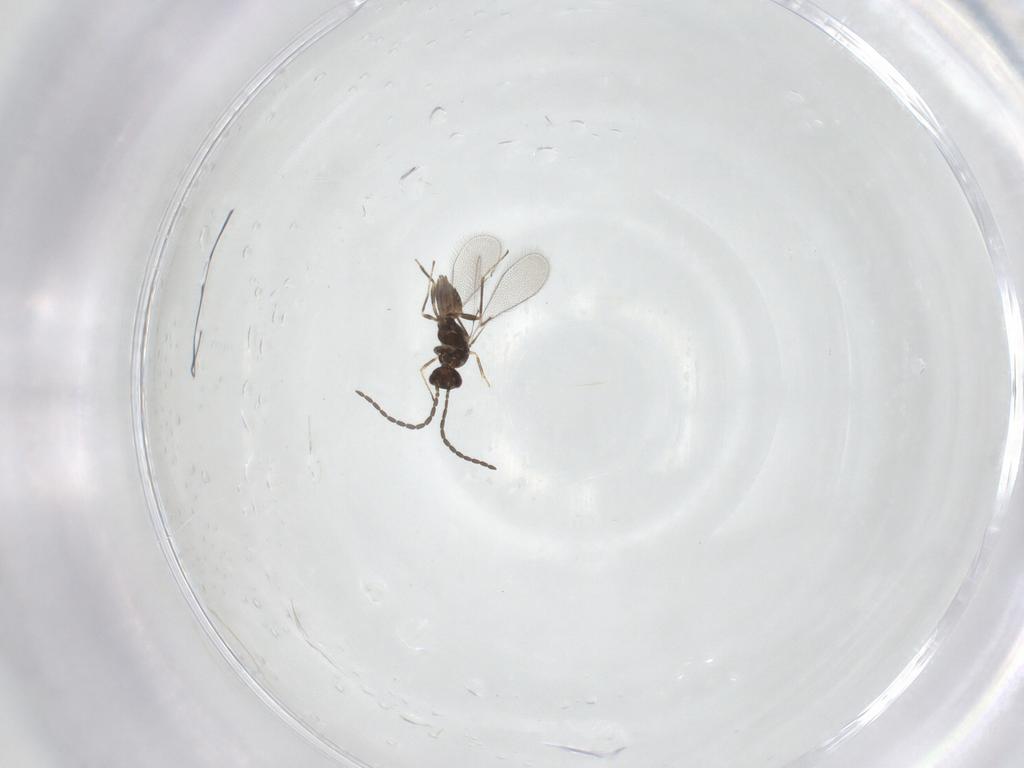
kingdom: Animalia
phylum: Arthropoda
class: Insecta
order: Hymenoptera
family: Mymaridae
